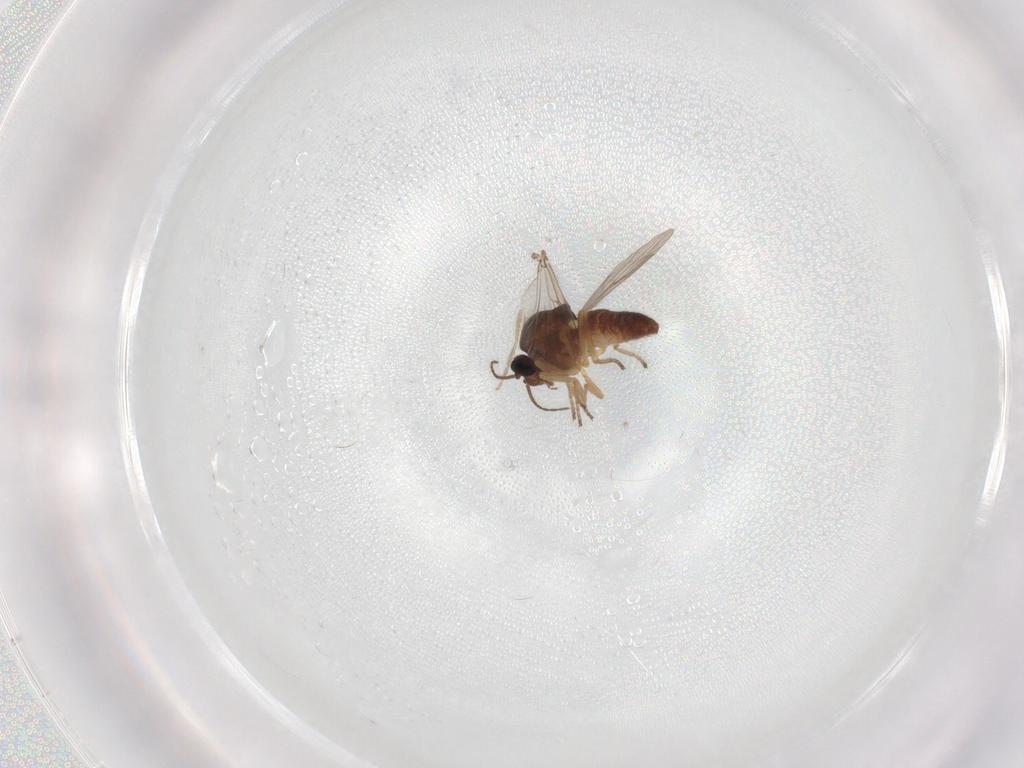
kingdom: Animalia
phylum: Arthropoda
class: Insecta
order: Diptera
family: Ceratopogonidae
